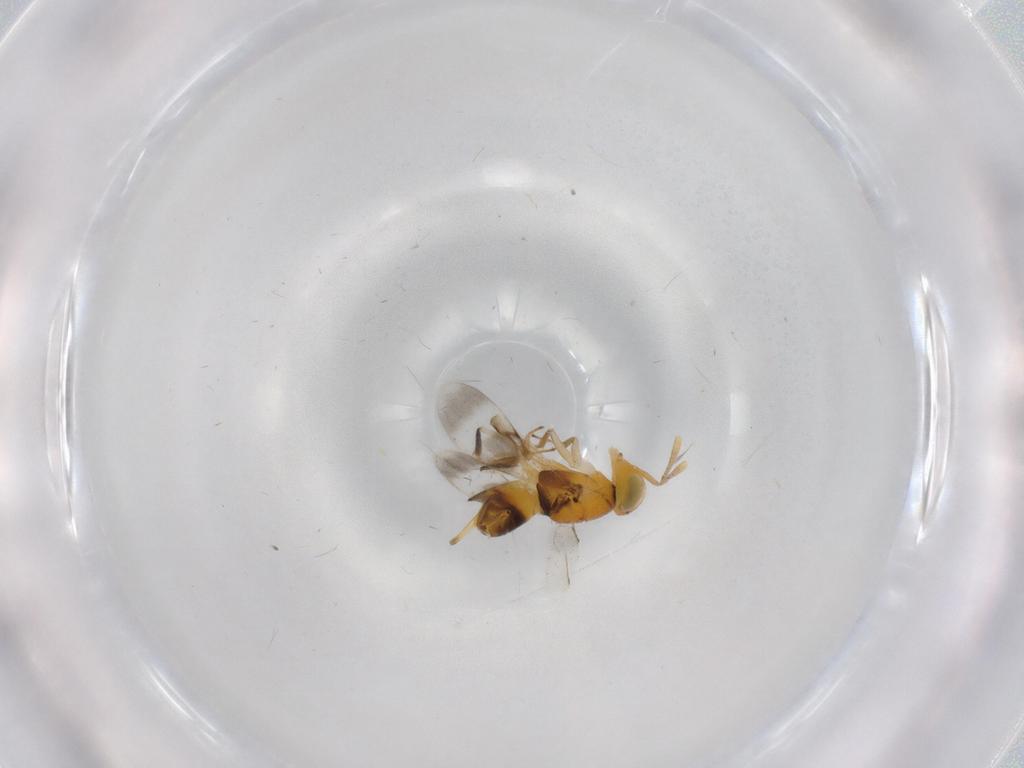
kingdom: Animalia
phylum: Arthropoda
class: Insecta
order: Hymenoptera
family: Encyrtidae
